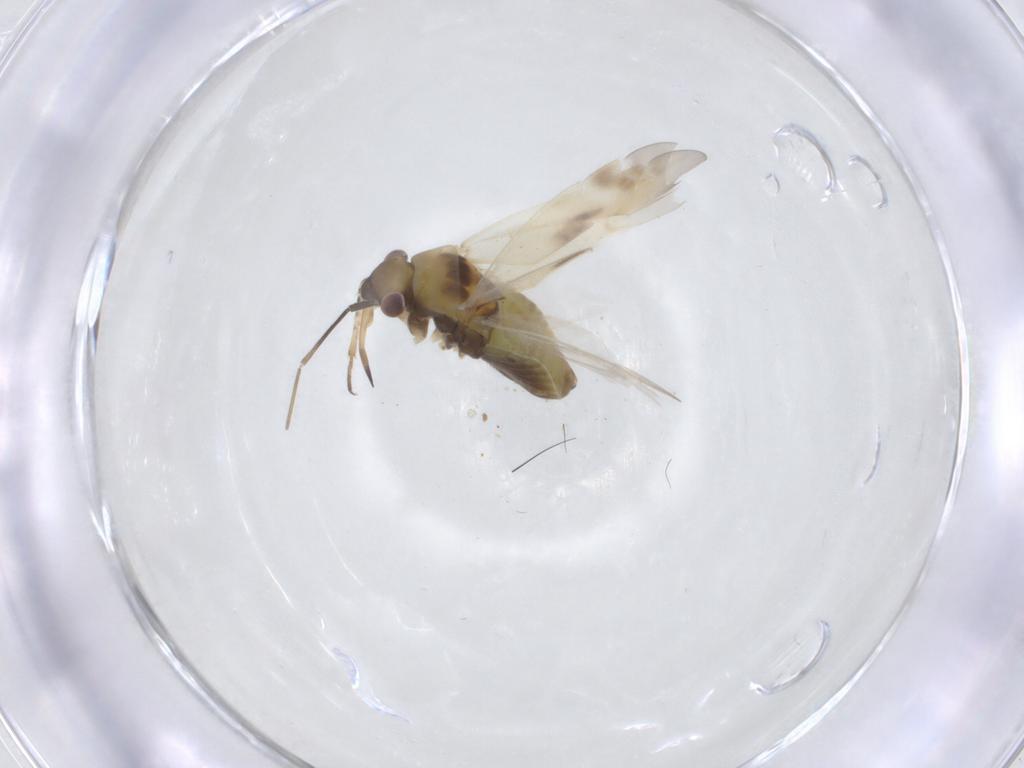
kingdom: Animalia
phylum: Arthropoda
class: Insecta
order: Hemiptera
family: Miridae
